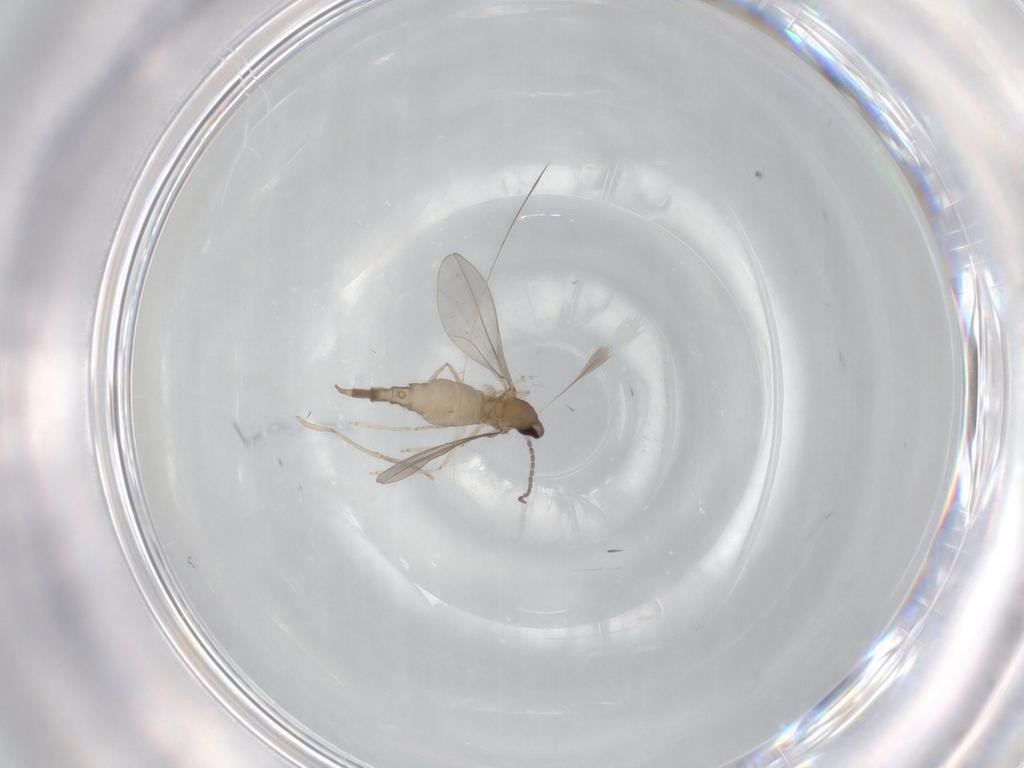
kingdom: Animalia
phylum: Arthropoda
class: Insecta
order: Diptera
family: Cecidomyiidae
